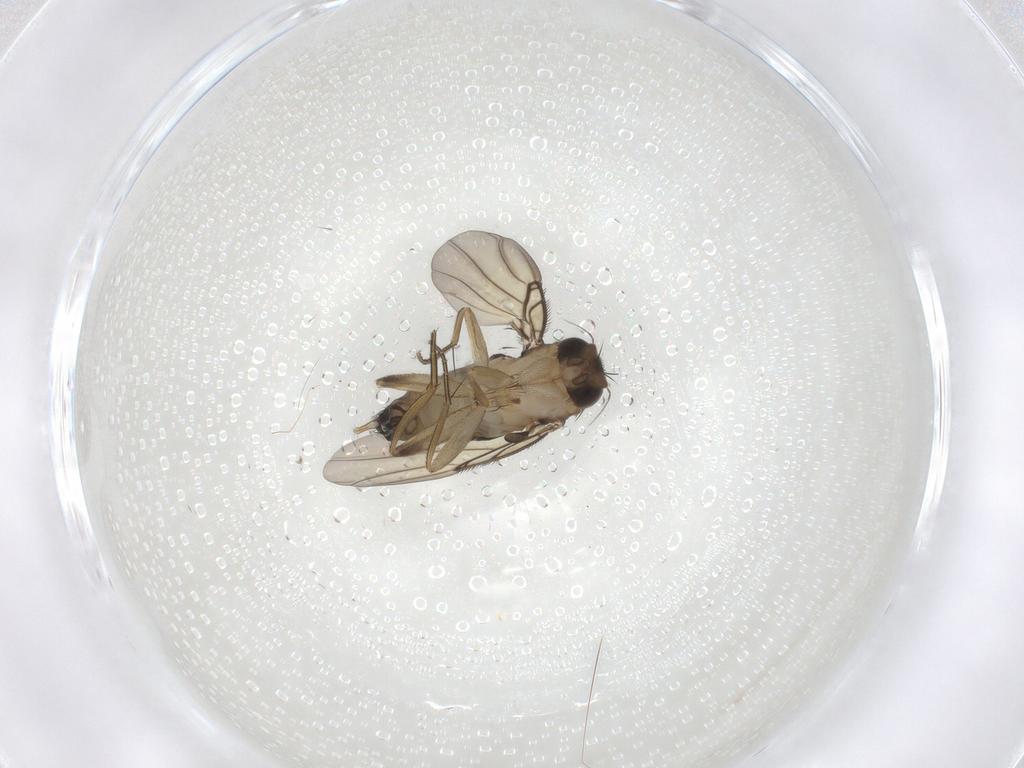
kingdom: Animalia
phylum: Arthropoda
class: Insecta
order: Diptera
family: Phoridae
